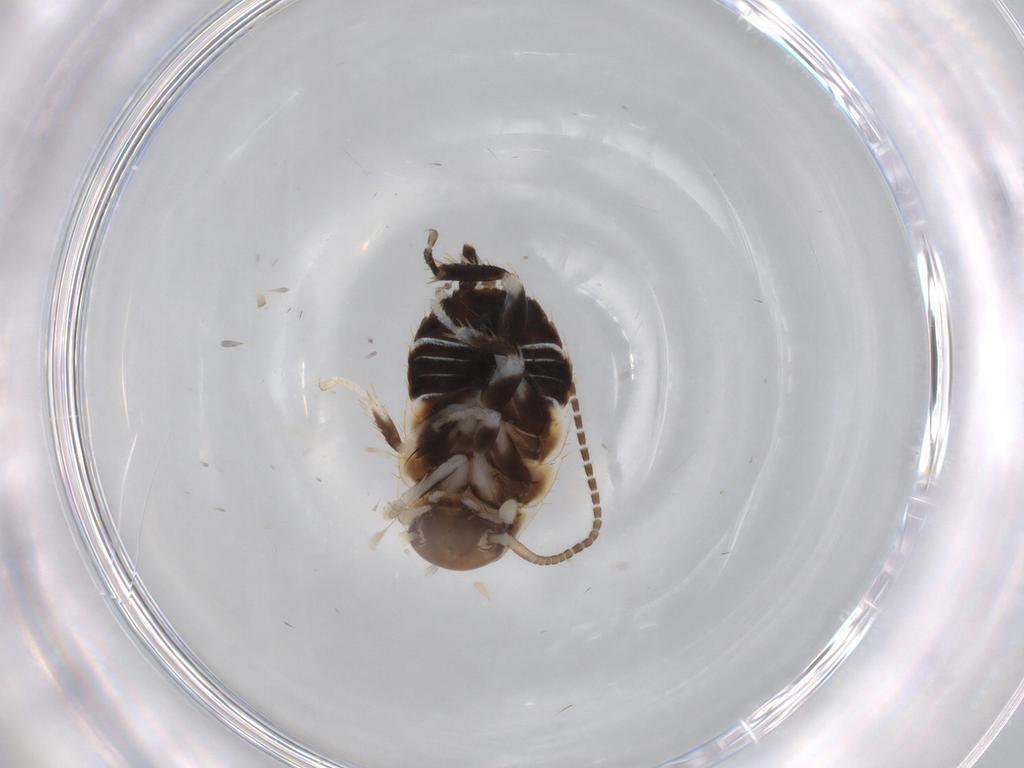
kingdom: Animalia
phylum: Arthropoda
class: Insecta
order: Blattodea
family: Ectobiidae
